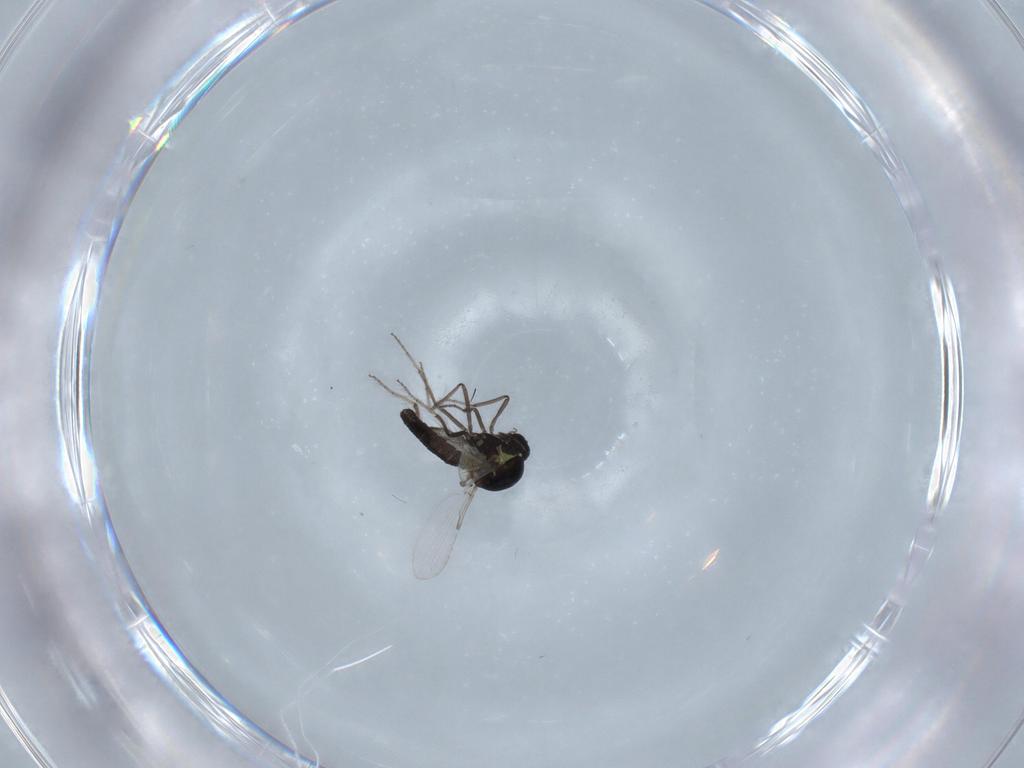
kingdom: Animalia
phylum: Arthropoda
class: Insecta
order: Diptera
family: Ceratopogonidae
